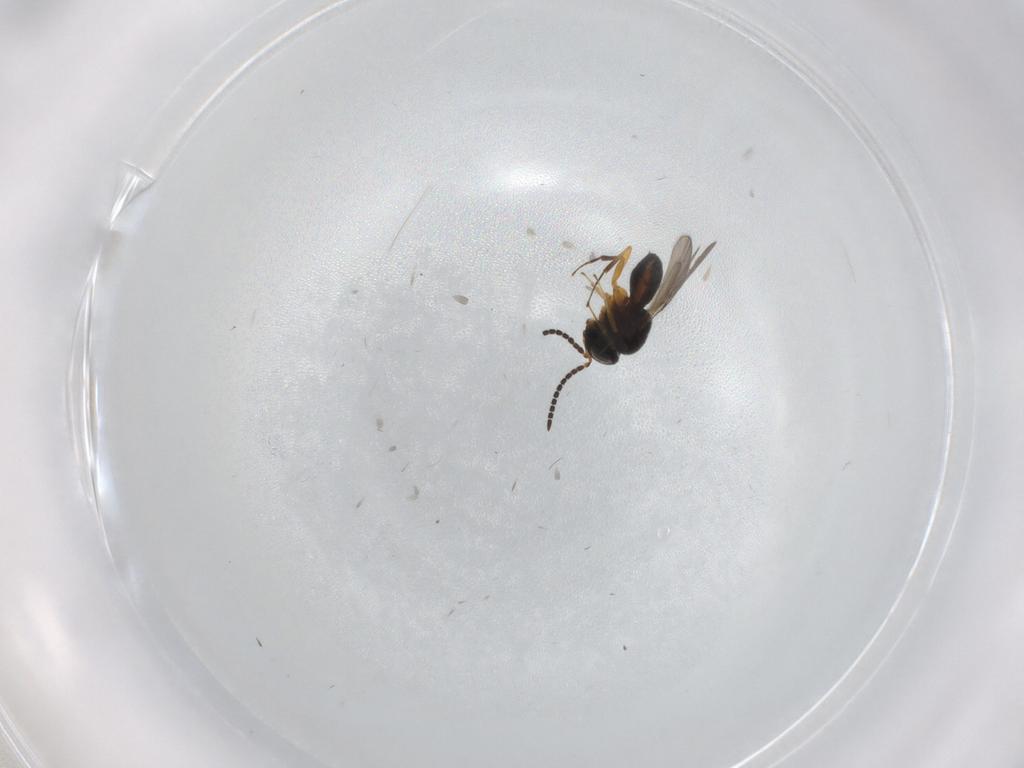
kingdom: Animalia
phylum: Arthropoda
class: Insecta
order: Hymenoptera
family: Scelionidae
